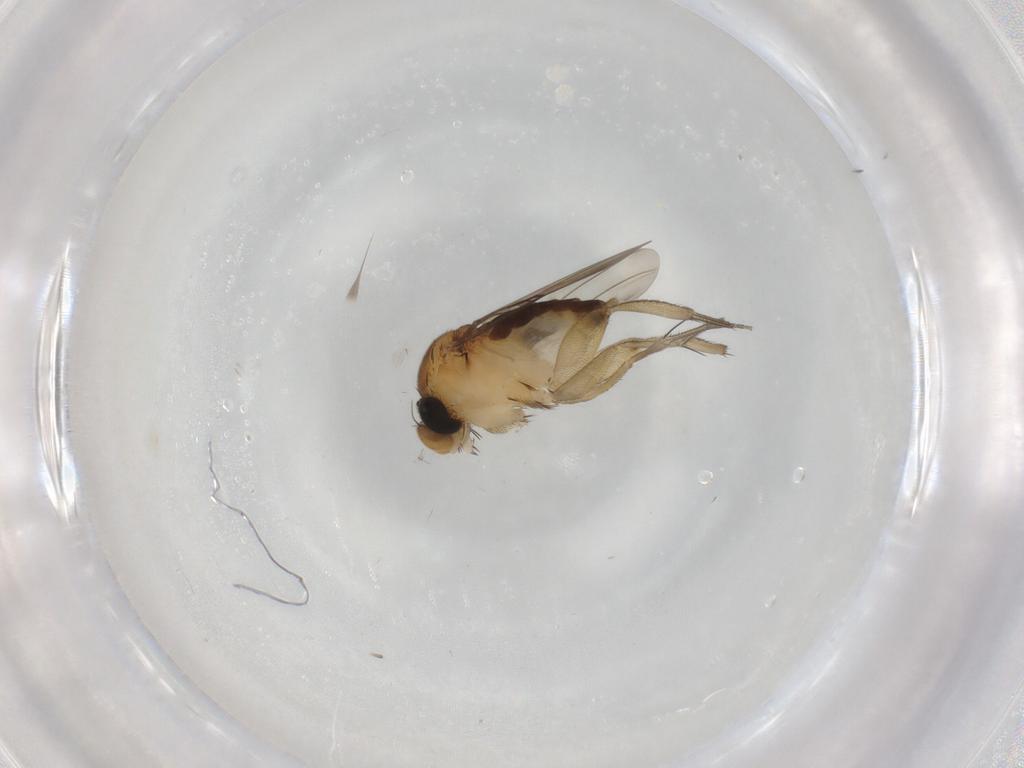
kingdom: Animalia
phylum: Arthropoda
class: Insecta
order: Diptera
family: Phoridae
